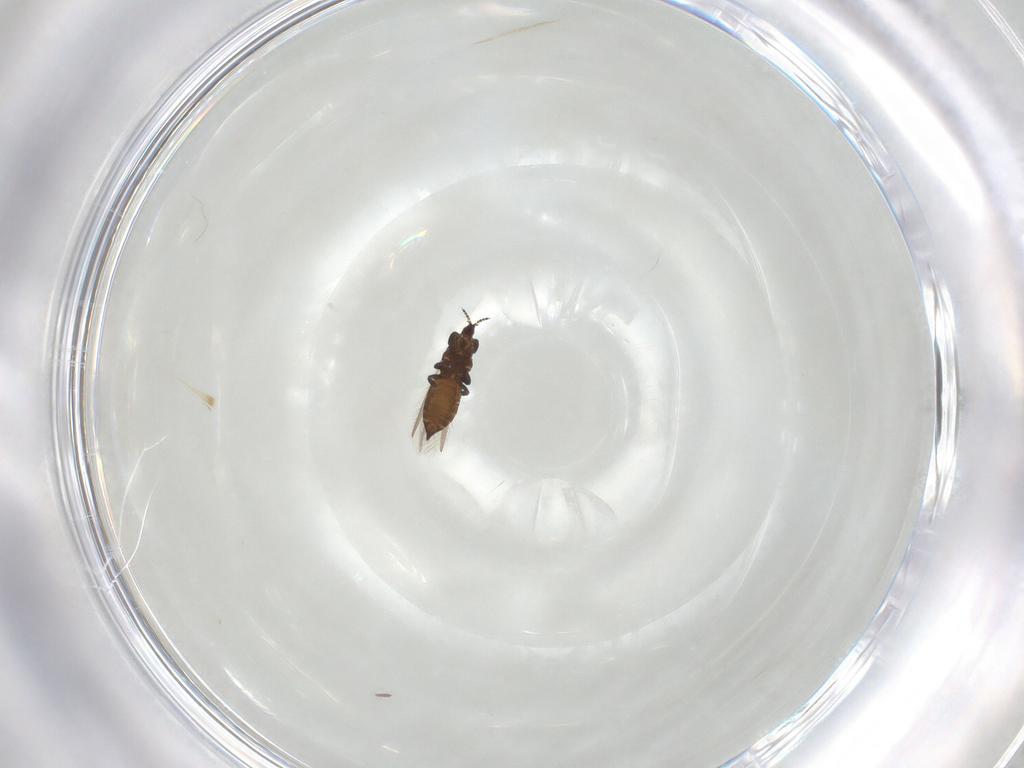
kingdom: Animalia
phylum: Arthropoda
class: Insecta
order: Thysanoptera
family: Thripidae
